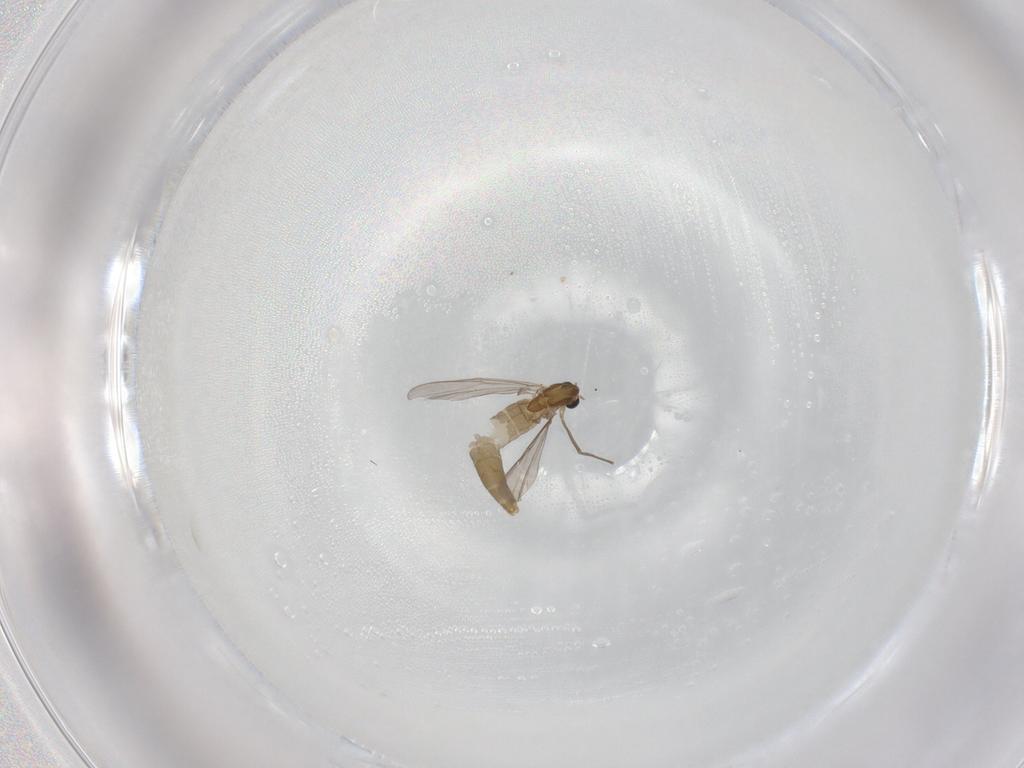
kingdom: Animalia
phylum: Arthropoda
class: Insecta
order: Diptera
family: Chironomidae
